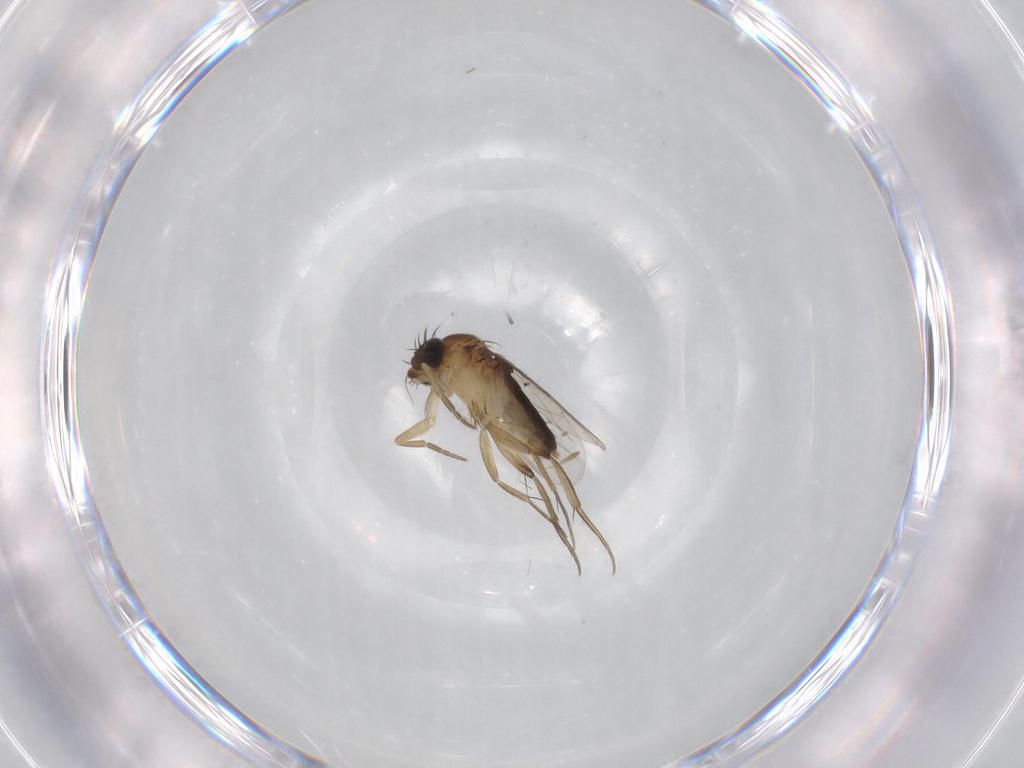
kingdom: Animalia
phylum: Arthropoda
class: Insecta
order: Diptera
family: Phoridae
